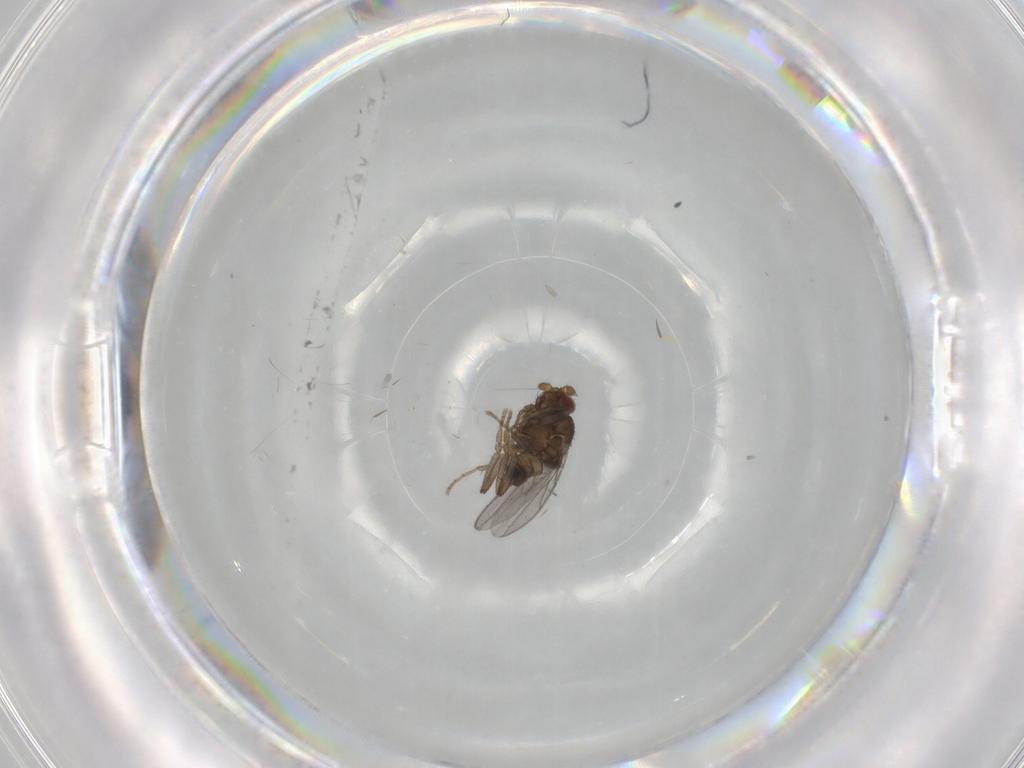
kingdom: Animalia
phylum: Arthropoda
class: Insecta
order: Diptera
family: Sphaeroceridae
